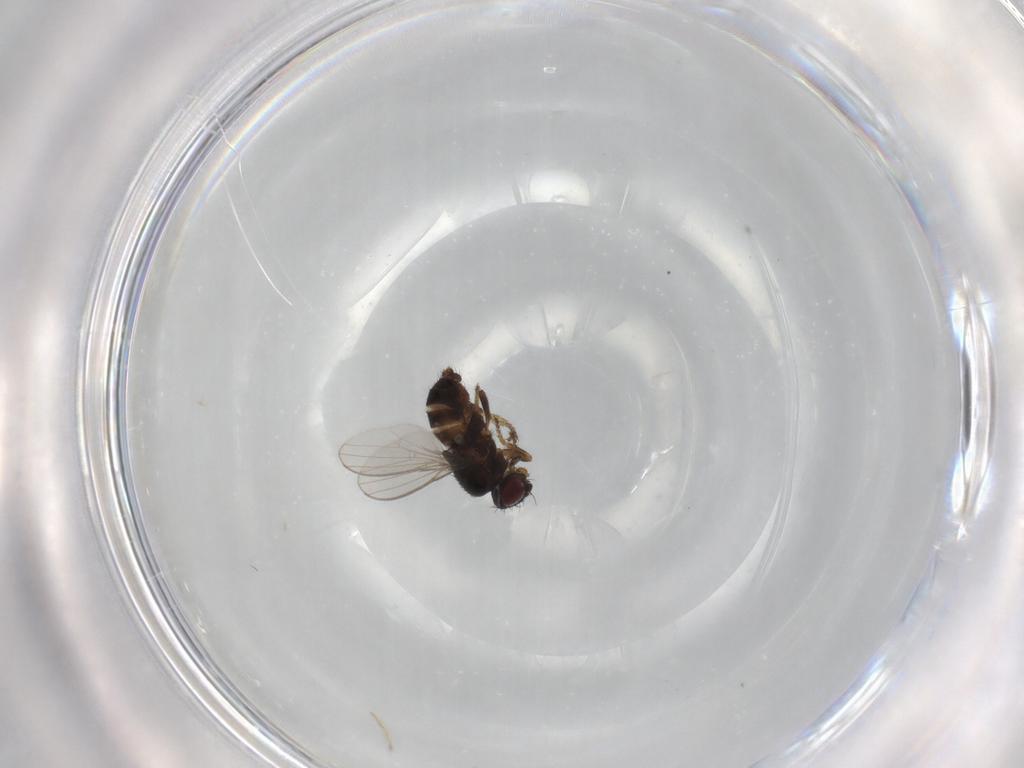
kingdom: Animalia
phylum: Arthropoda
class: Insecta
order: Diptera
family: Milichiidae
